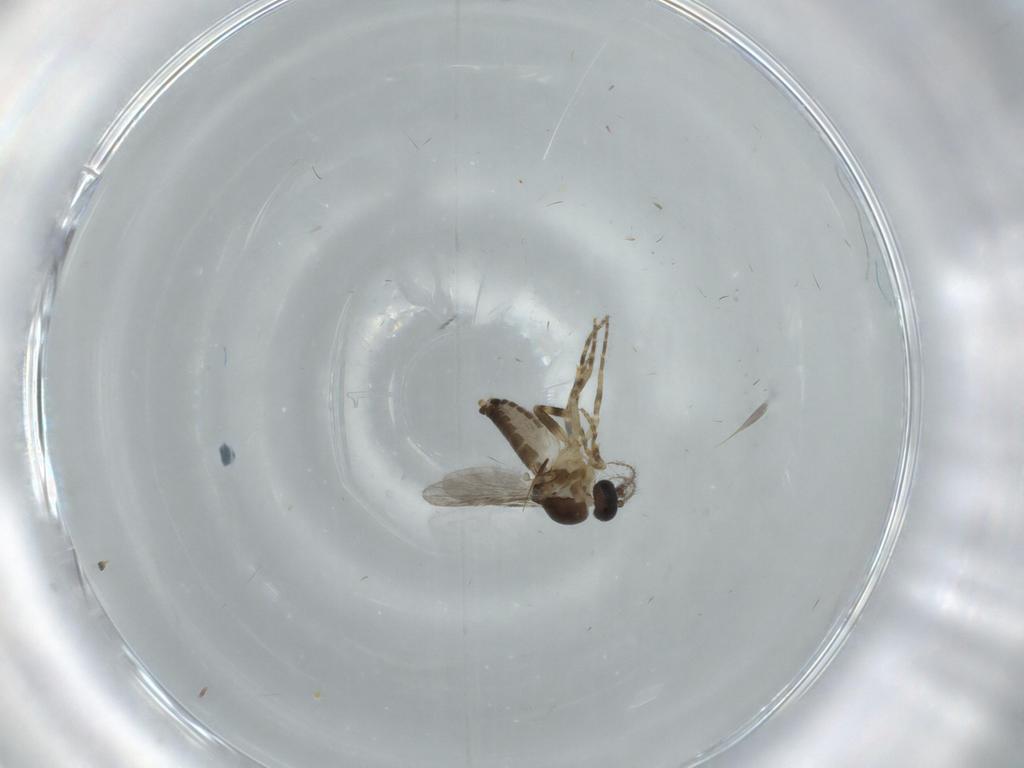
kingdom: Animalia
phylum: Arthropoda
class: Insecta
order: Diptera
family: Ceratopogonidae
